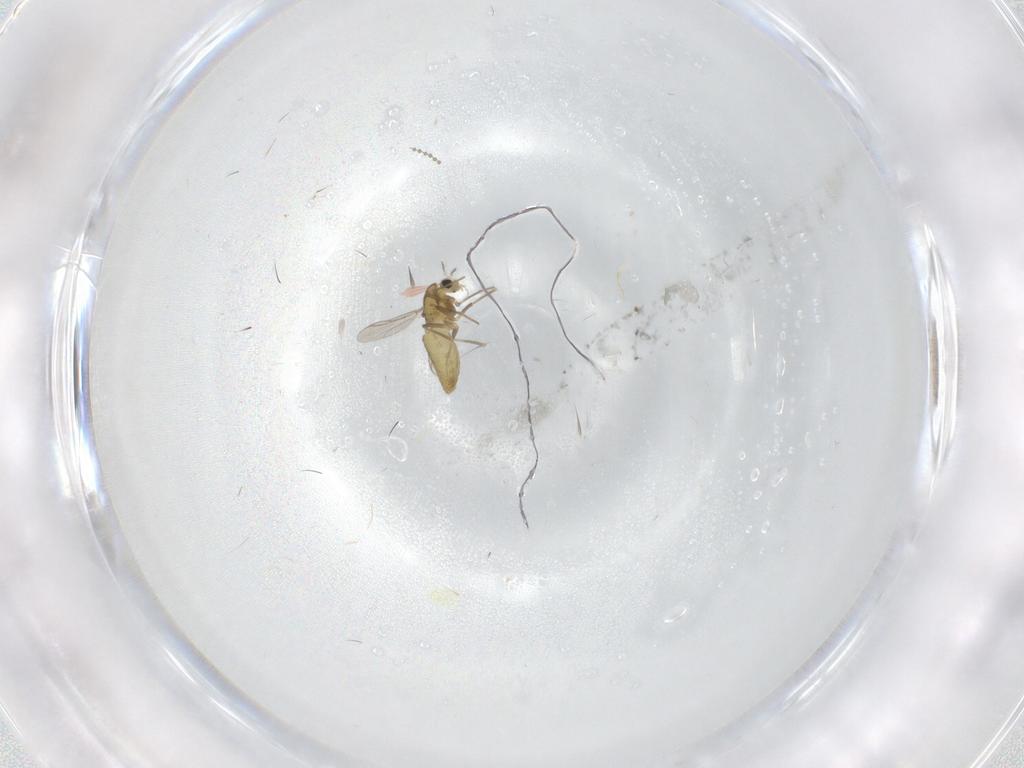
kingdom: Animalia
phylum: Arthropoda
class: Insecta
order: Diptera
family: Chironomidae
